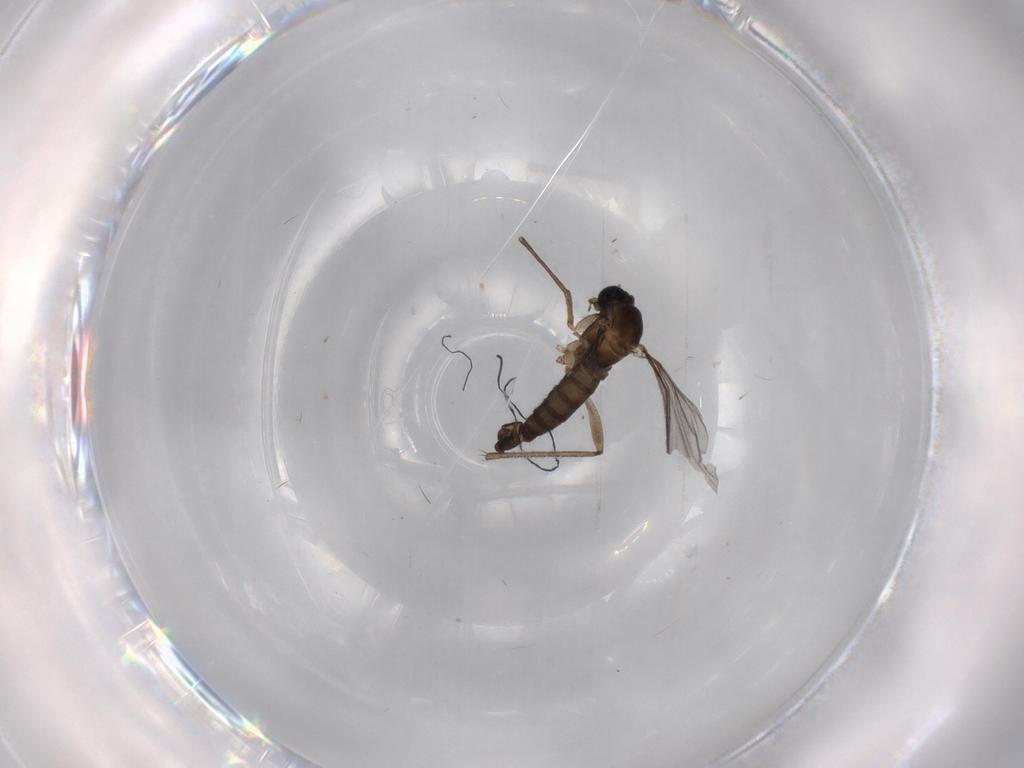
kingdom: Animalia
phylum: Arthropoda
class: Insecta
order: Diptera
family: Sciaridae
